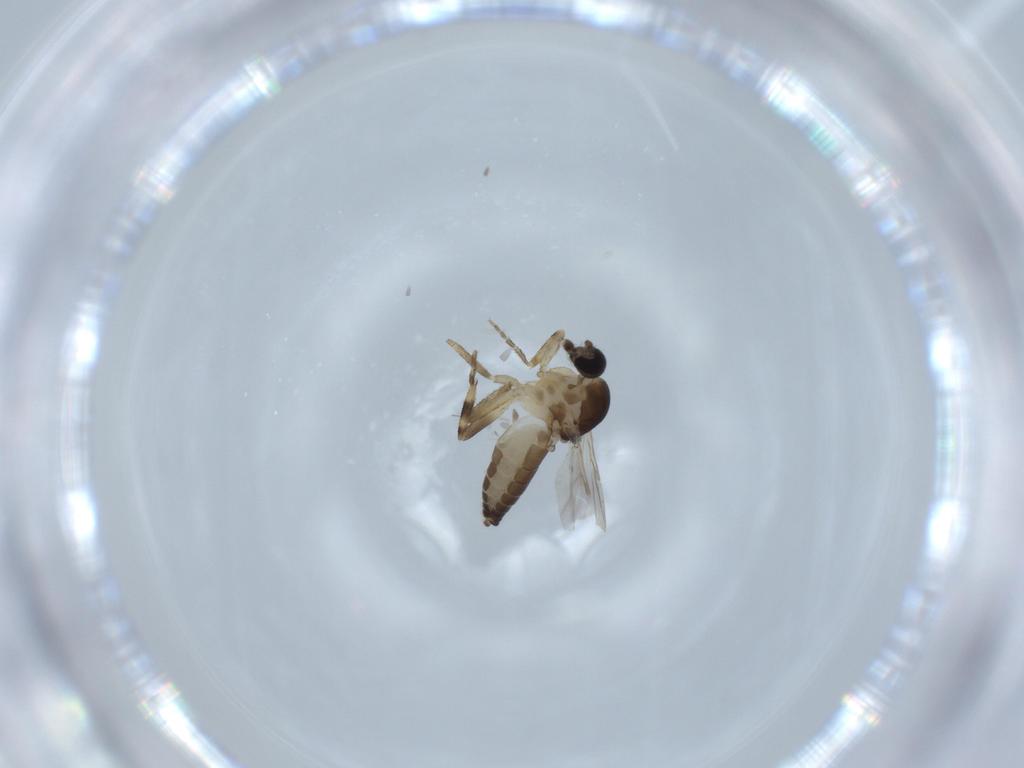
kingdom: Animalia
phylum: Arthropoda
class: Insecta
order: Diptera
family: Ceratopogonidae
